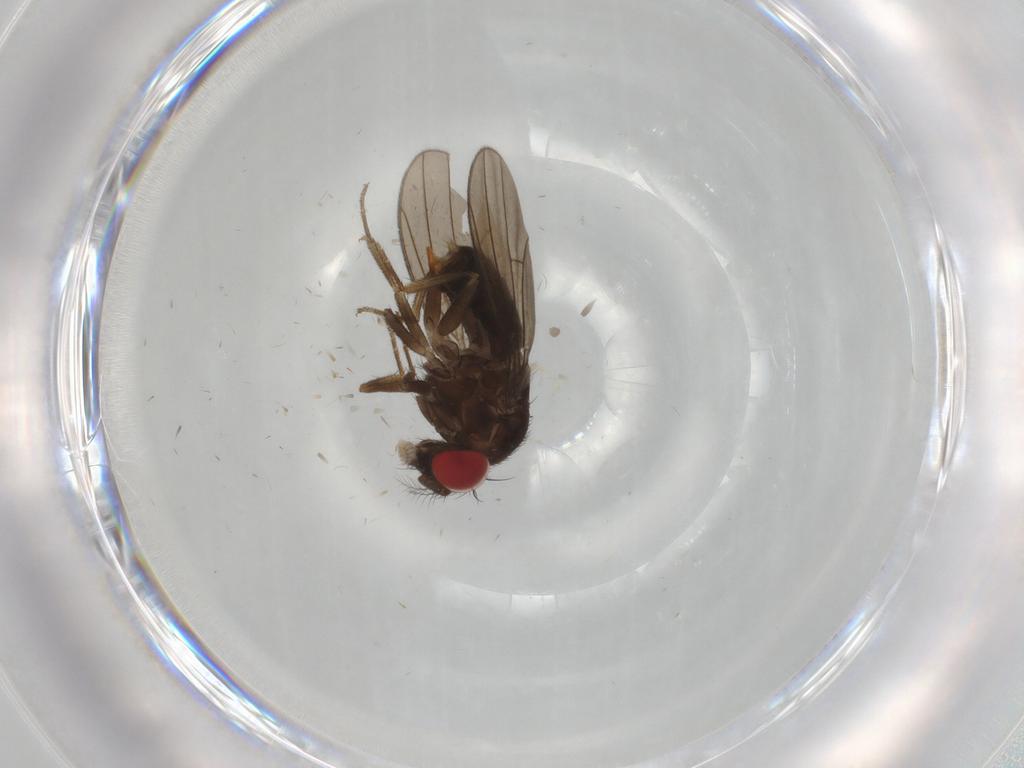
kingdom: Animalia
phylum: Arthropoda
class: Insecta
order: Diptera
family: Drosophilidae
